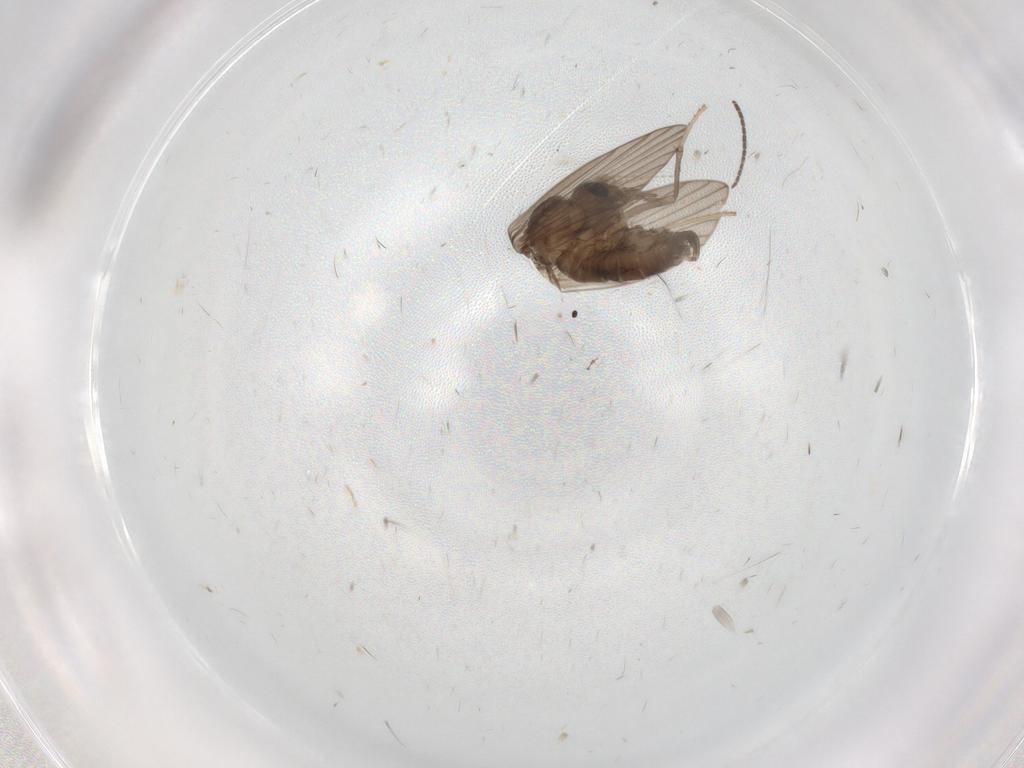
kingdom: Animalia
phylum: Arthropoda
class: Insecta
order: Diptera
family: Psychodidae
